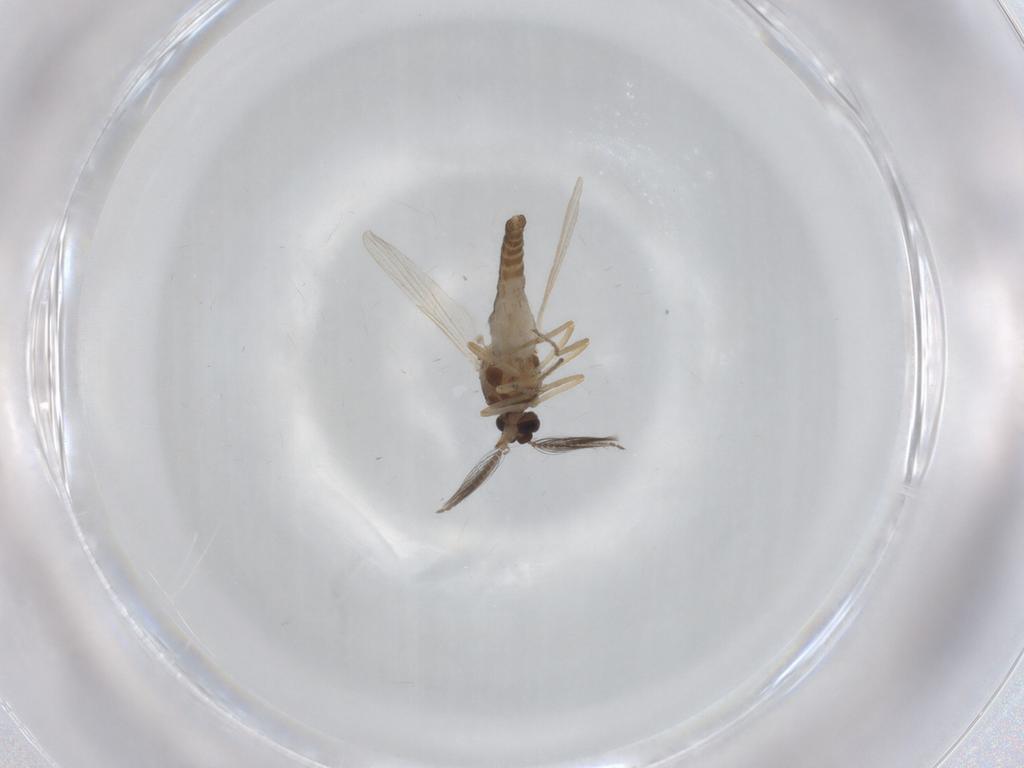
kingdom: Animalia
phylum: Arthropoda
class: Insecta
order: Diptera
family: Ceratopogonidae
